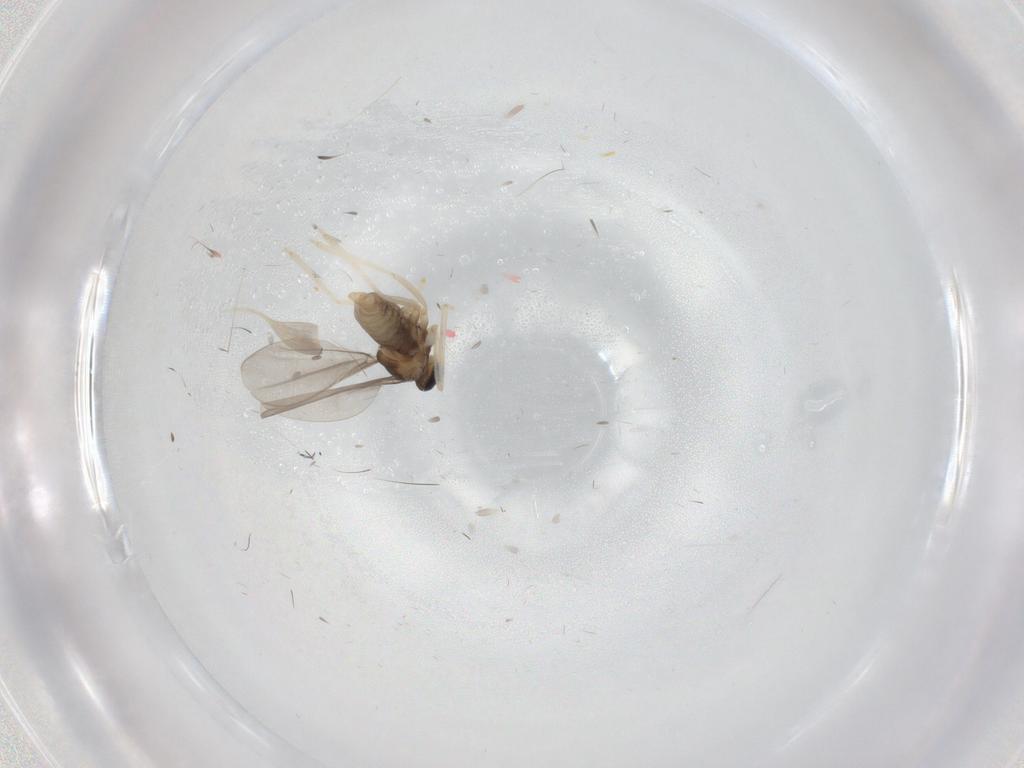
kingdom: Animalia
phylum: Arthropoda
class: Insecta
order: Diptera
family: Cecidomyiidae
